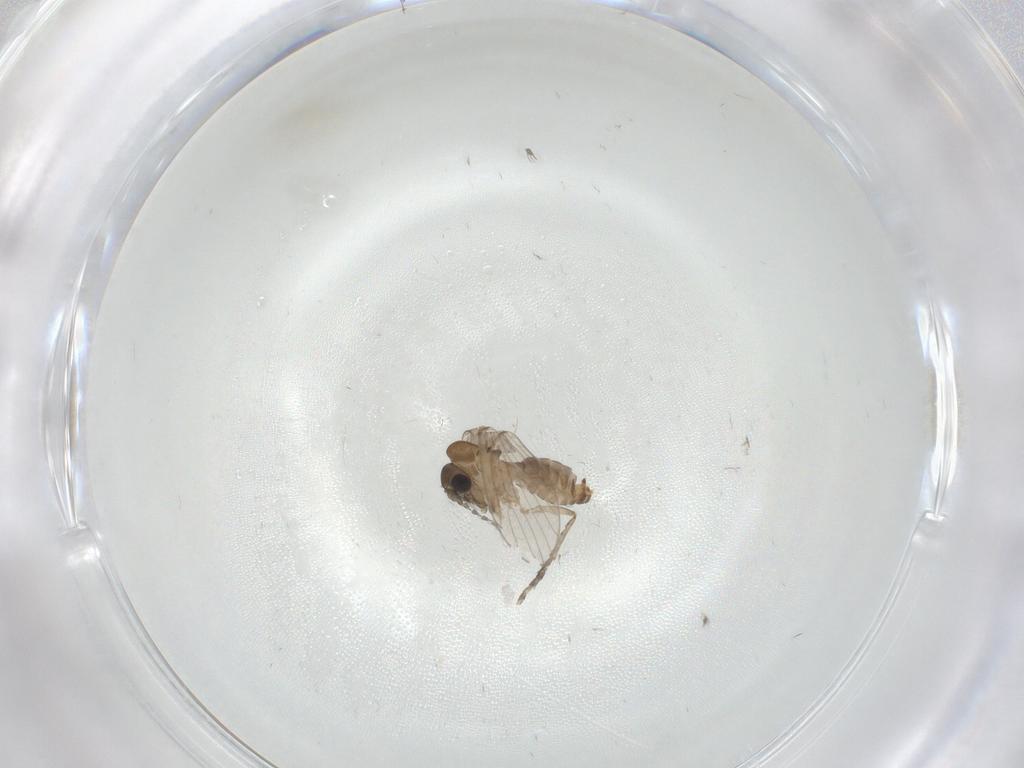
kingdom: Animalia
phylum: Arthropoda
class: Insecta
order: Diptera
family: Psychodidae
